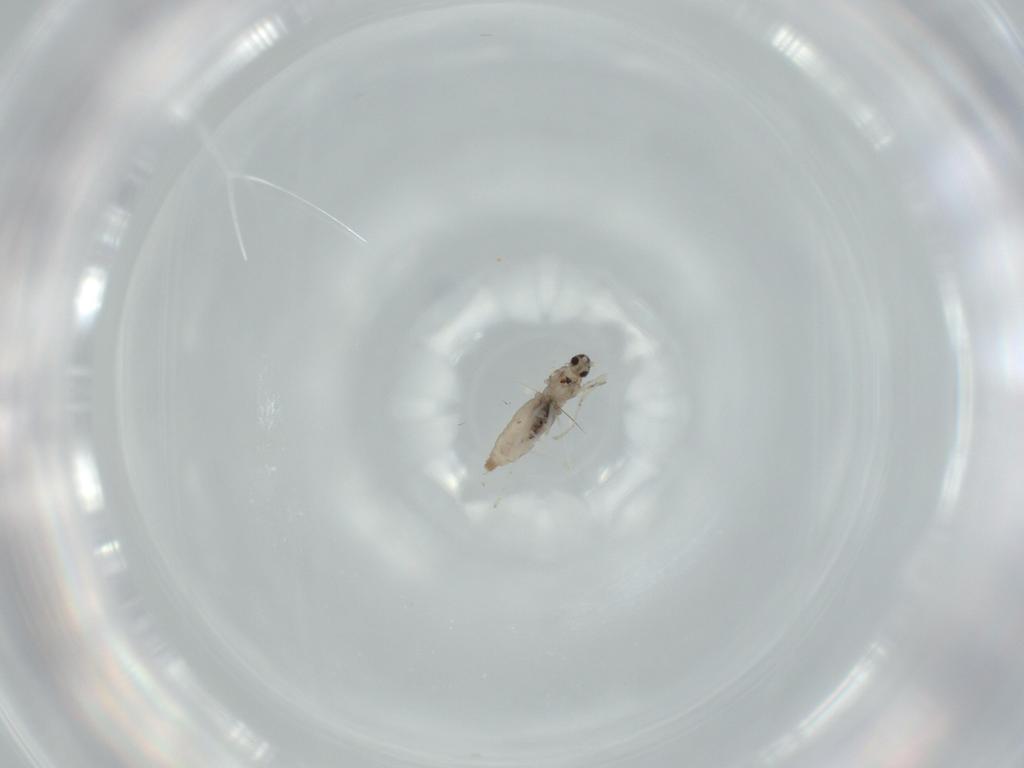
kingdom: Animalia
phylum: Arthropoda
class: Insecta
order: Diptera
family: Cecidomyiidae
